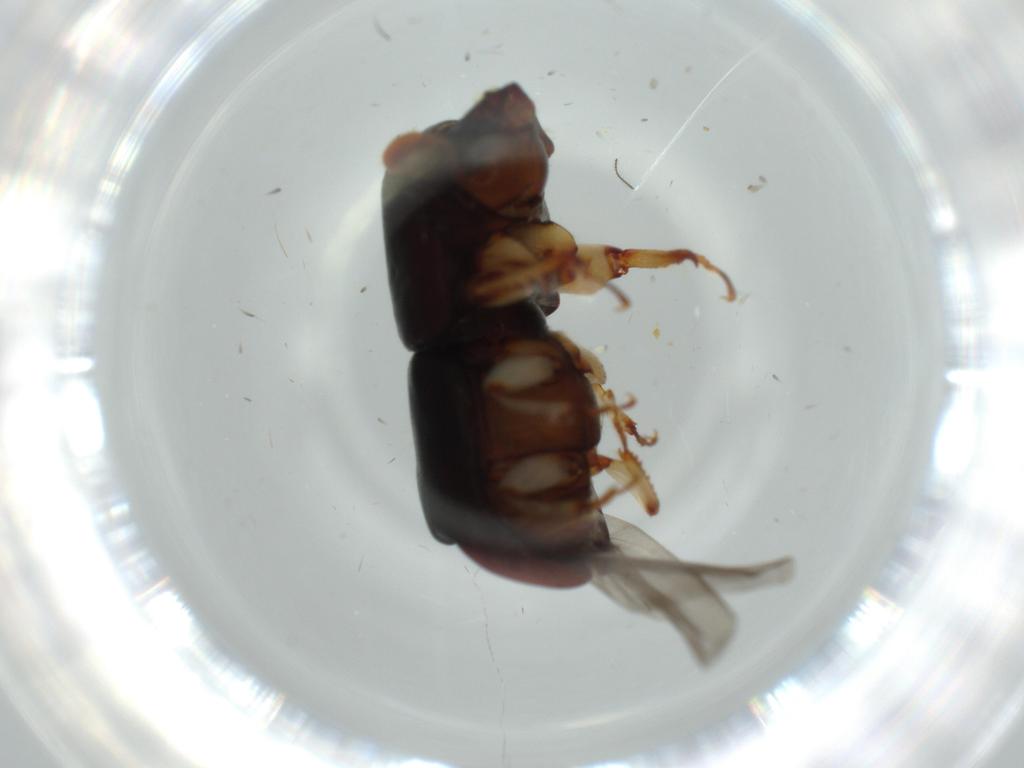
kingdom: Animalia
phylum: Arthropoda
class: Insecta
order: Coleoptera
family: Curculionidae
